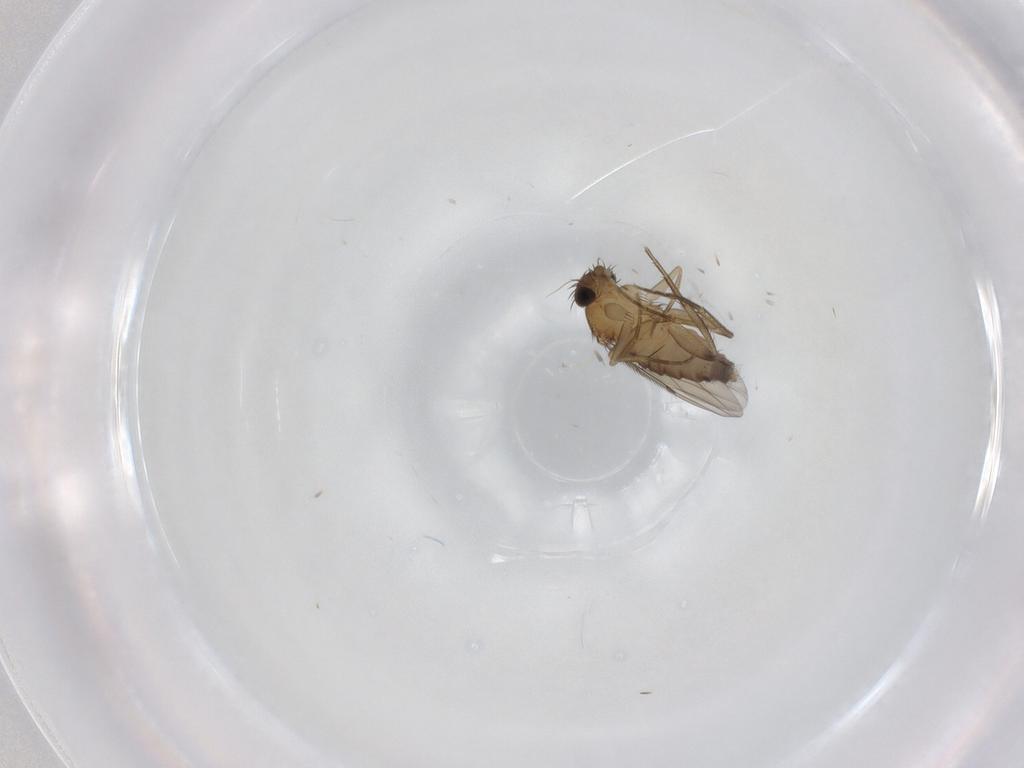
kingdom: Animalia
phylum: Arthropoda
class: Insecta
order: Diptera
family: Phoridae
